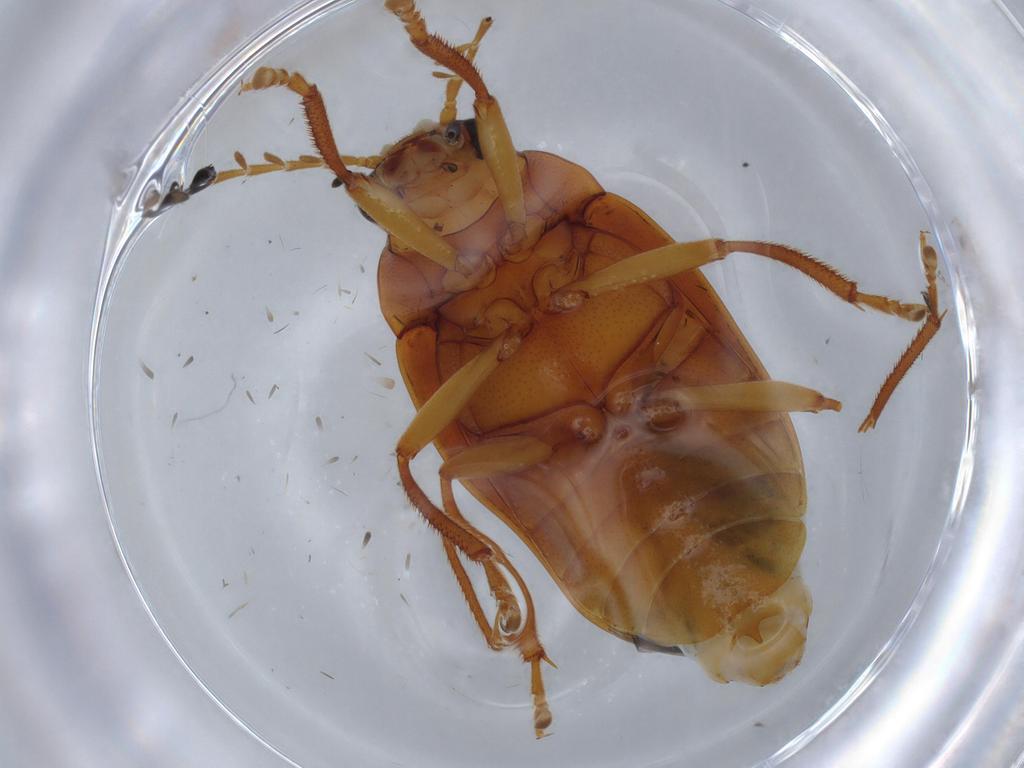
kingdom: Animalia
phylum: Arthropoda
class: Insecta
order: Coleoptera
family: Ptilodactylidae
